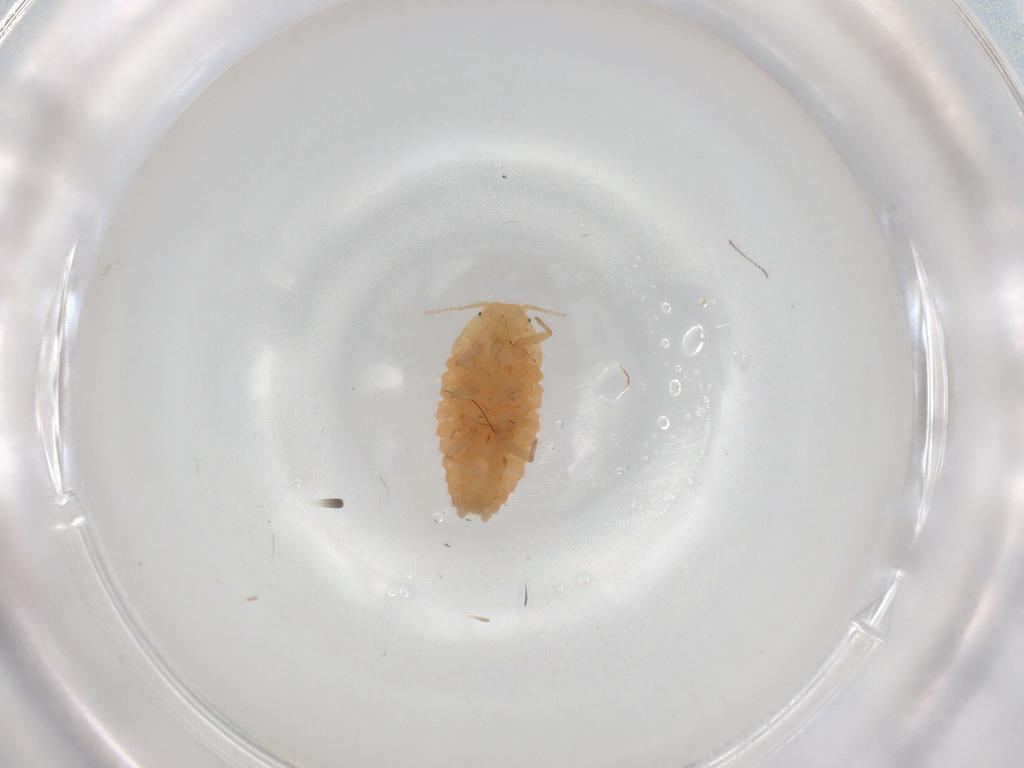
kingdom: Animalia
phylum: Arthropoda
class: Insecta
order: Hemiptera
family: Pseudococcidae
